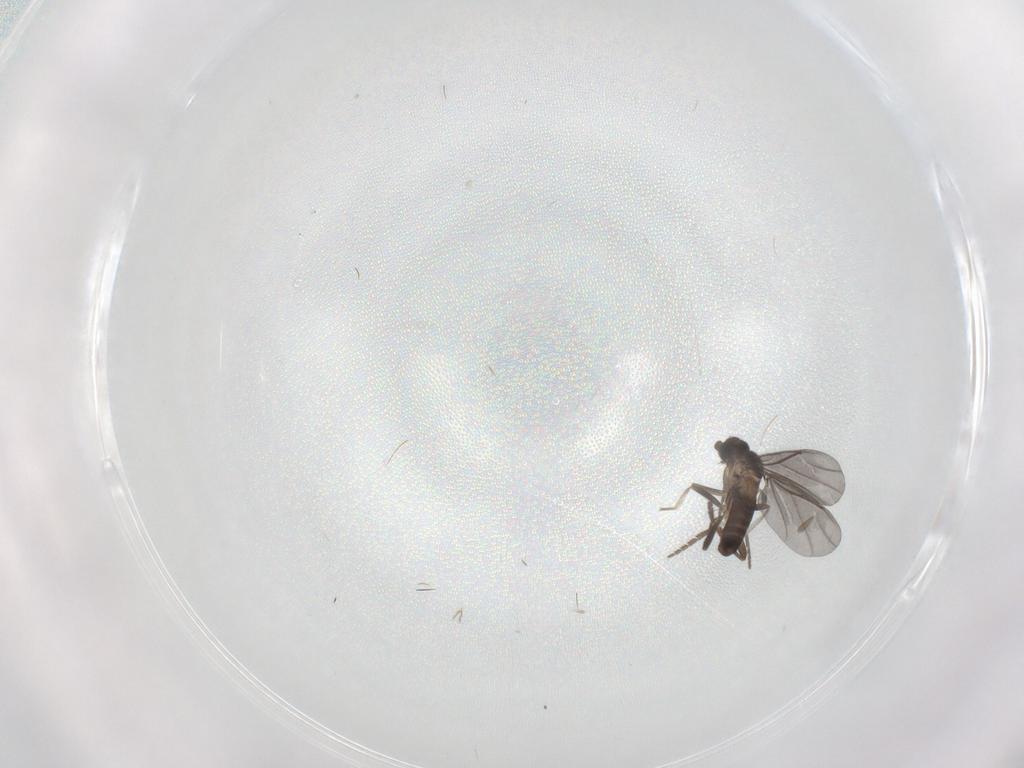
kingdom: Animalia
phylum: Arthropoda
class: Insecta
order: Diptera
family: Phoridae
